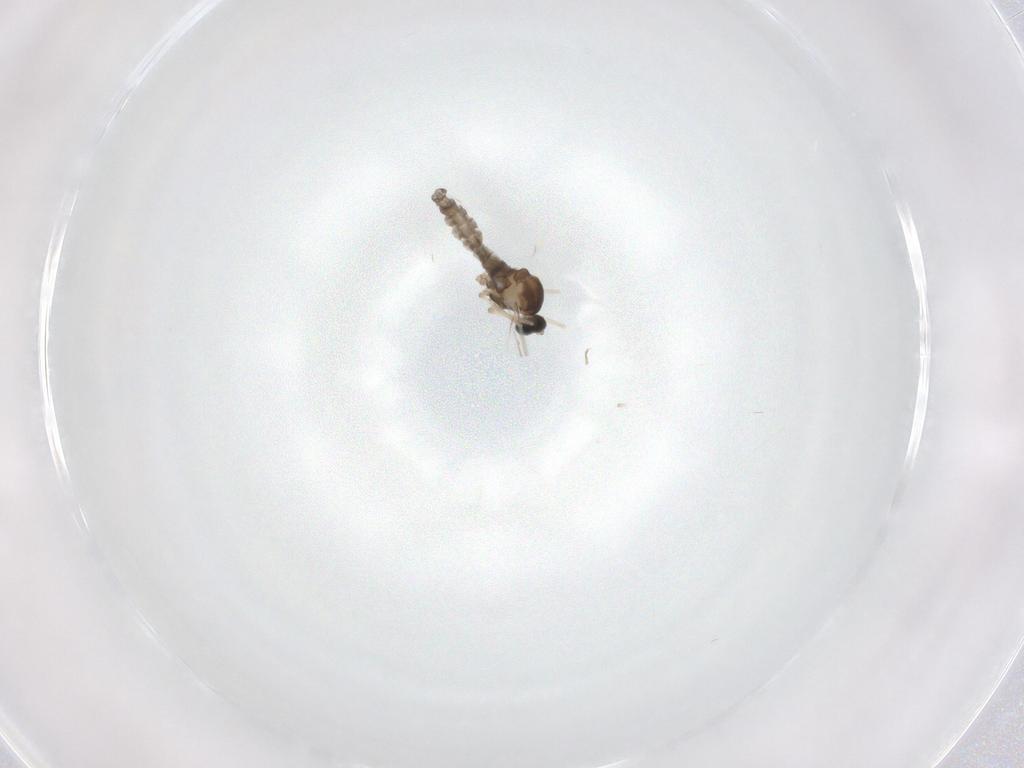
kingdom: Animalia
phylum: Arthropoda
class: Insecta
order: Diptera
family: Cecidomyiidae
